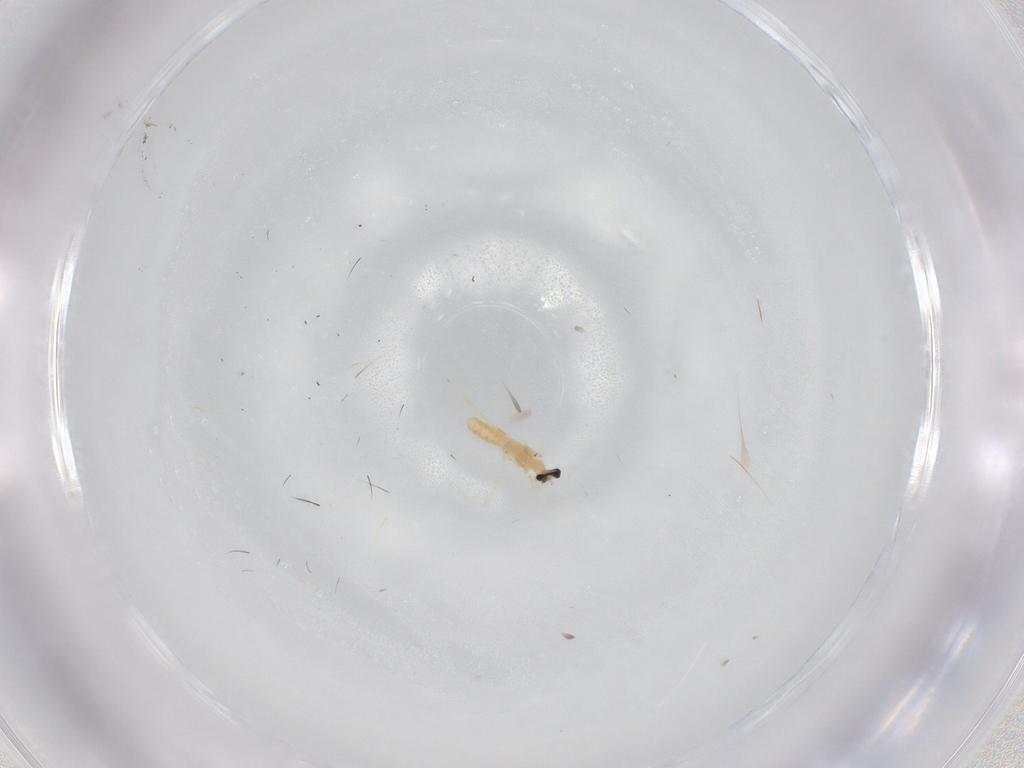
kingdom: Animalia
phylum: Arthropoda
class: Insecta
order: Diptera
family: Cecidomyiidae
